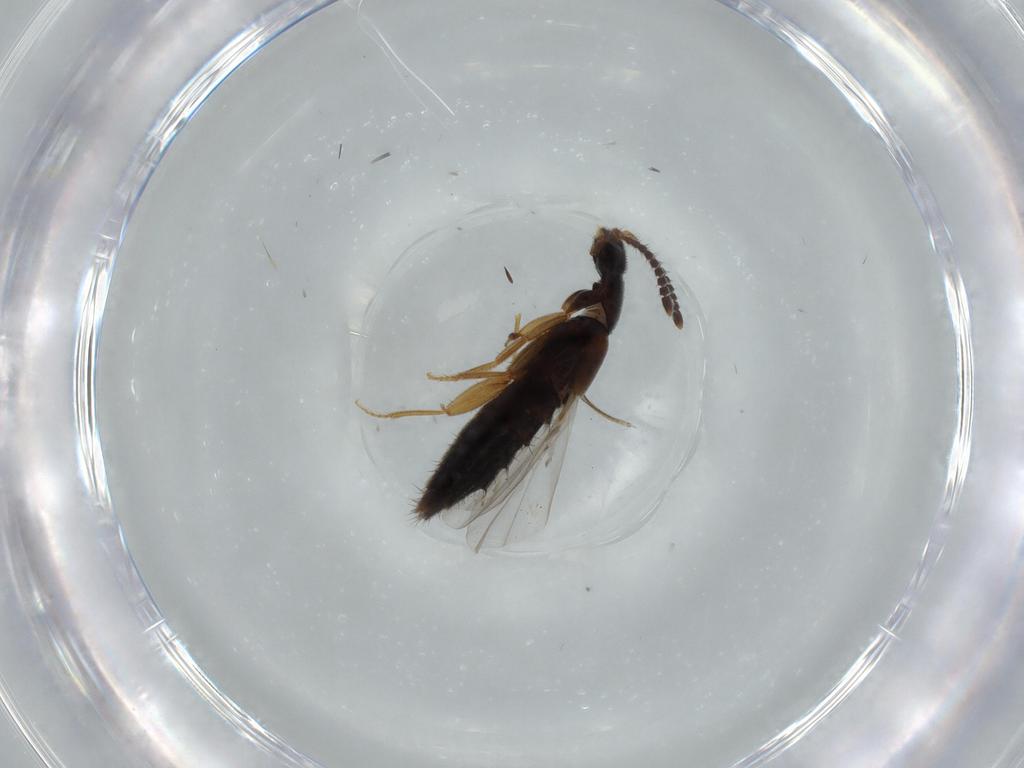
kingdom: Animalia
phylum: Arthropoda
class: Insecta
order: Coleoptera
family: Staphylinidae
